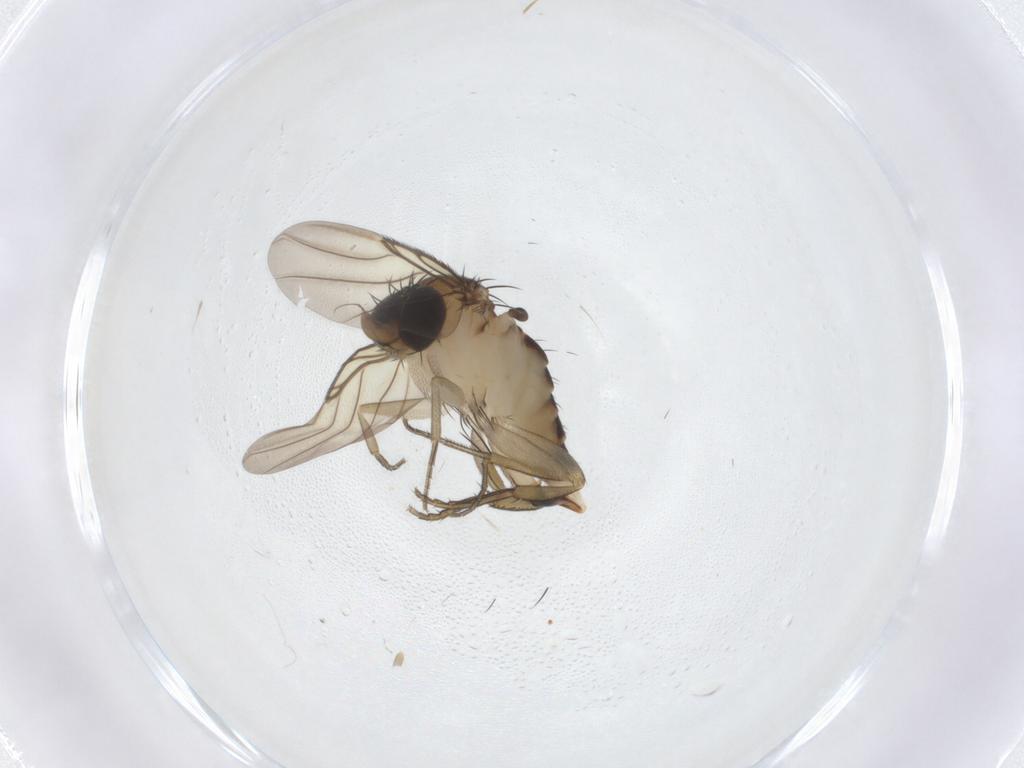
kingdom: Animalia
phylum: Arthropoda
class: Insecta
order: Diptera
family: Phoridae
